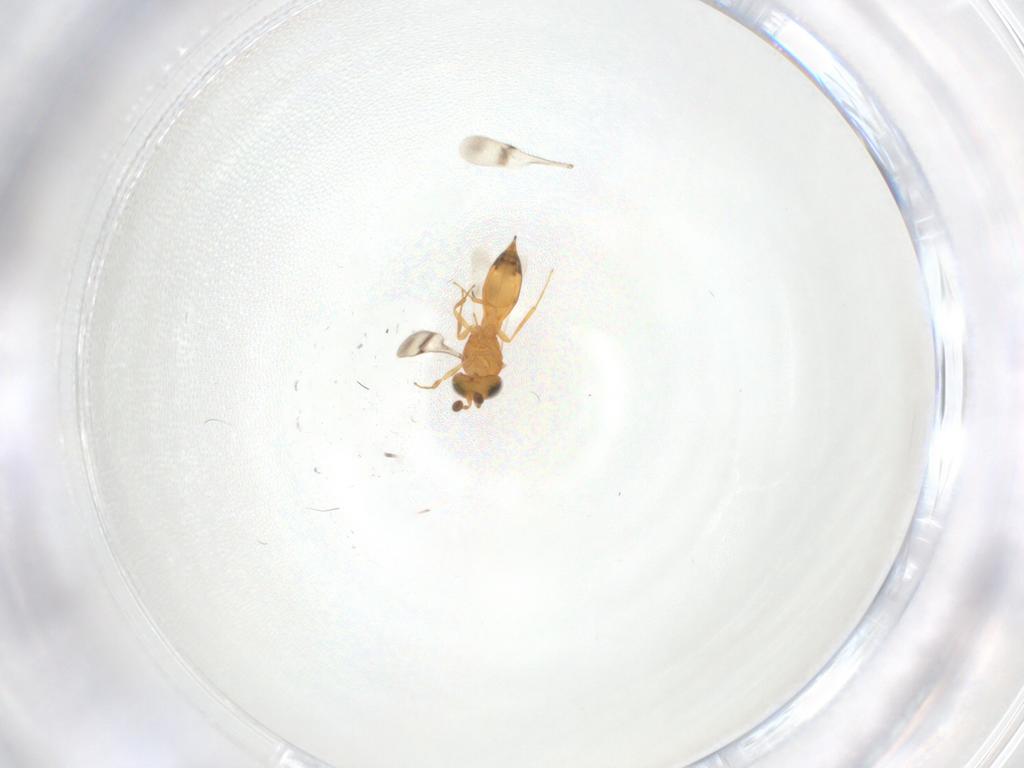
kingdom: Animalia
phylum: Arthropoda
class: Insecta
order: Hymenoptera
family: Scelionidae
